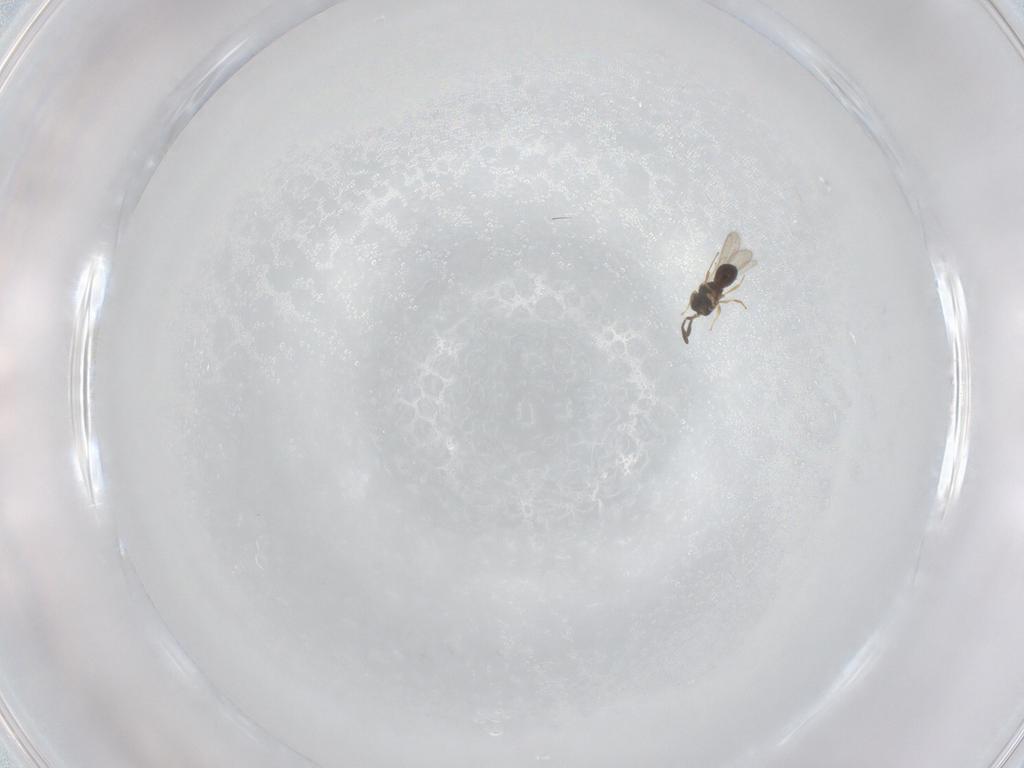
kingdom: Animalia
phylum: Arthropoda
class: Insecta
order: Hymenoptera
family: Scelionidae
